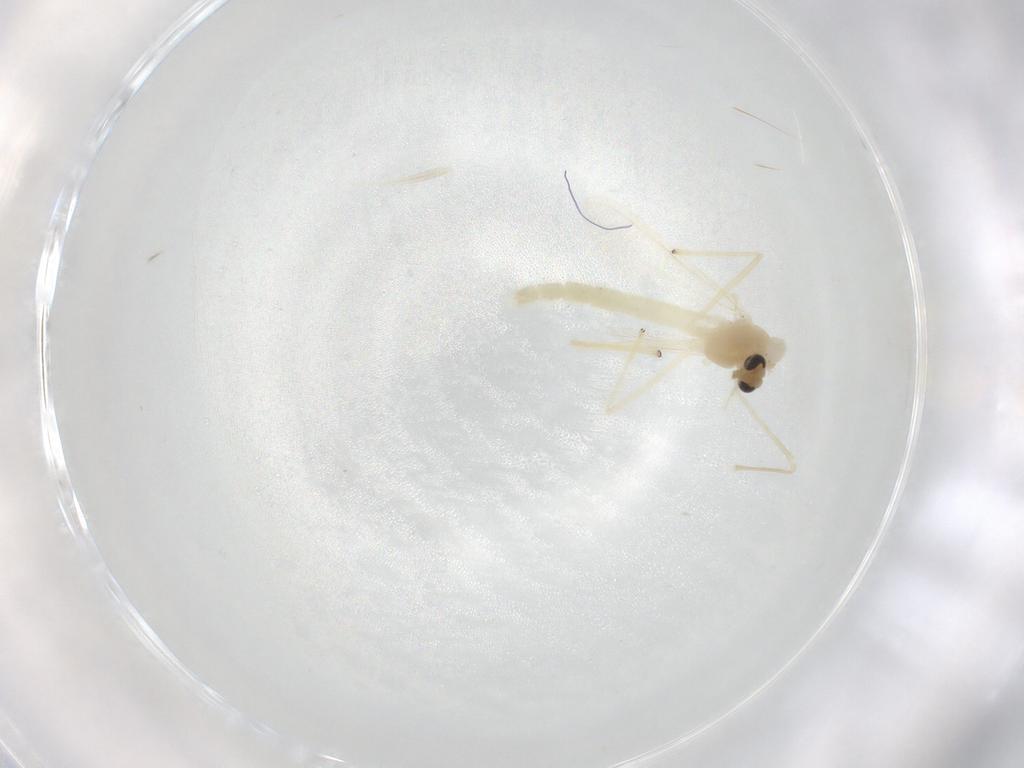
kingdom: Animalia
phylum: Arthropoda
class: Insecta
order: Diptera
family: Chironomidae
